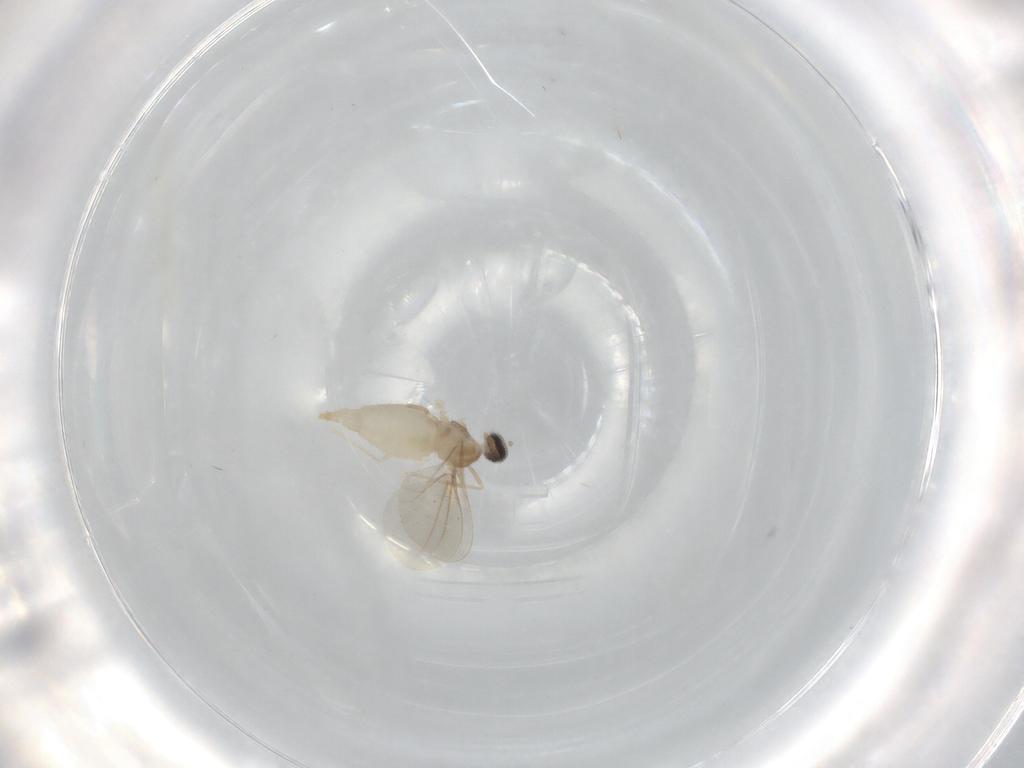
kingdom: Animalia
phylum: Arthropoda
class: Insecta
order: Diptera
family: Cecidomyiidae
